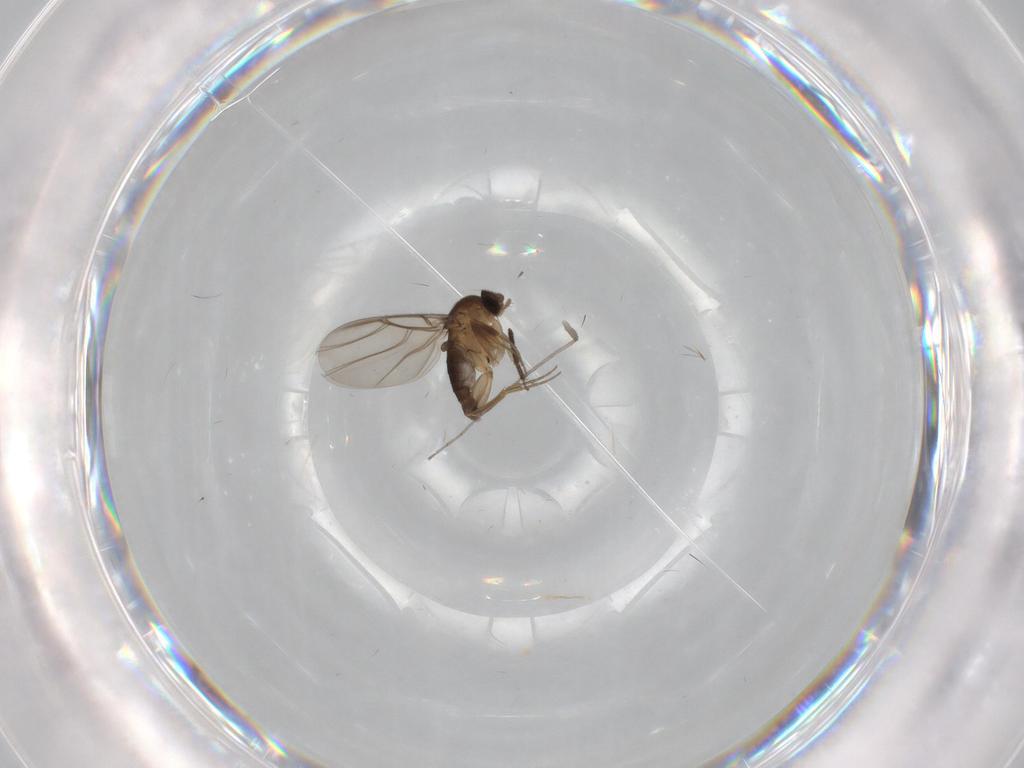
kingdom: Animalia
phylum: Arthropoda
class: Insecta
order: Diptera
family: Phoridae
